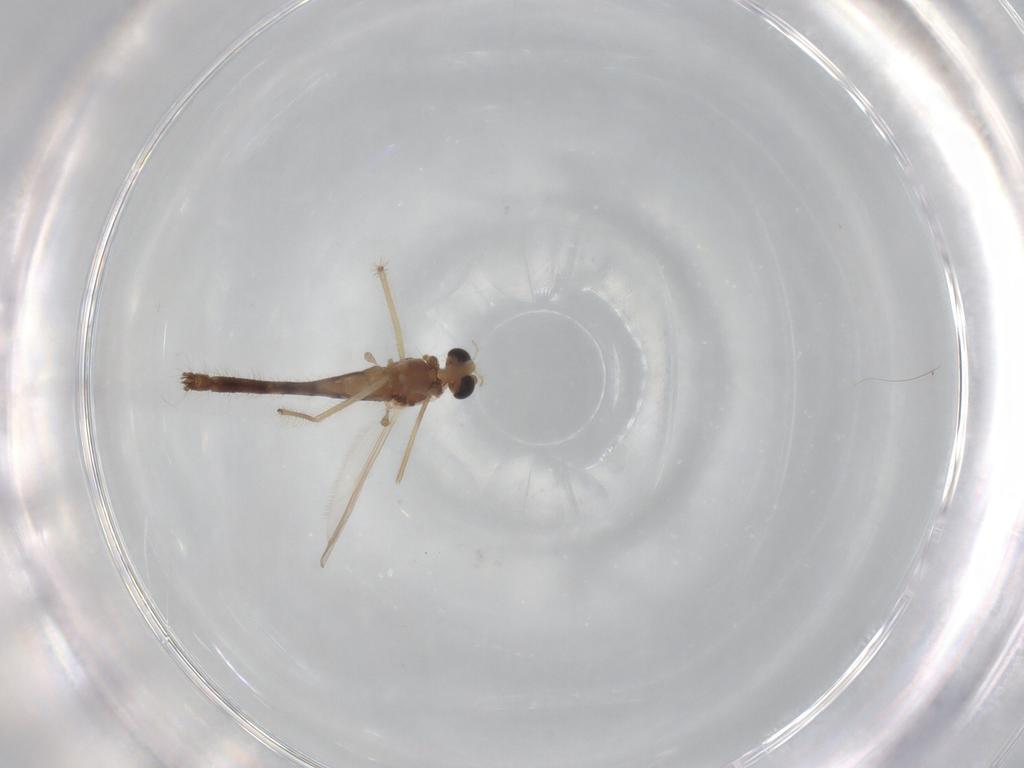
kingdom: Animalia
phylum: Arthropoda
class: Insecta
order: Diptera
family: Chironomidae
